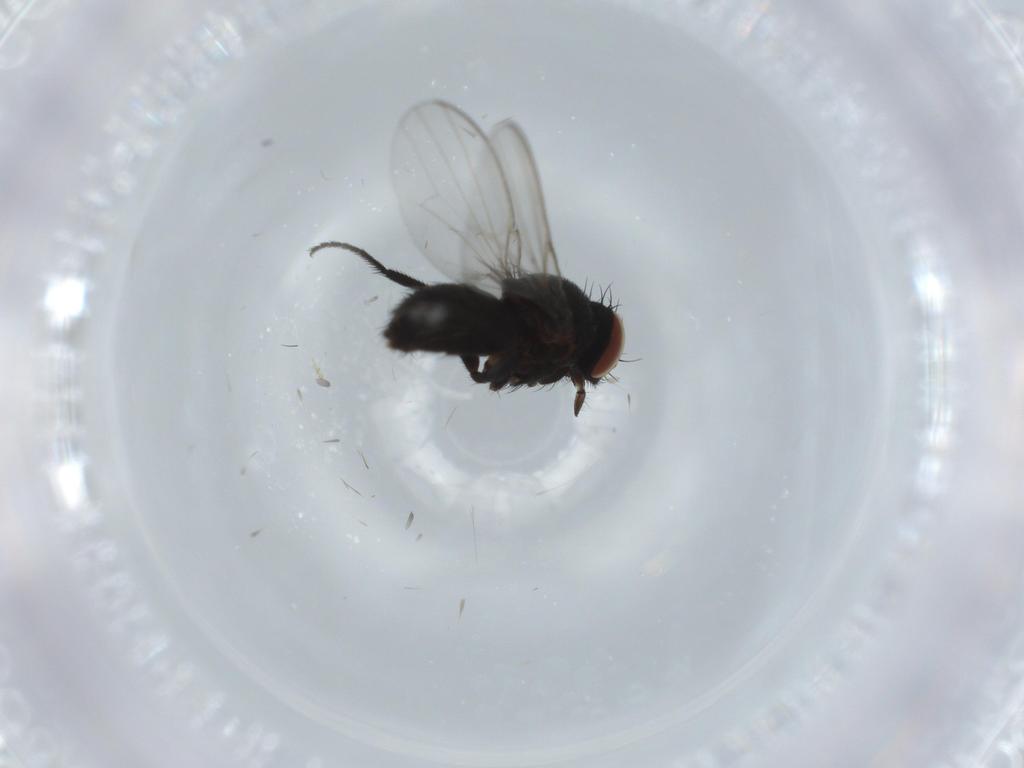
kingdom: Animalia
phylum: Arthropoda
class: Insecta
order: Diptera
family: Milichiidae
